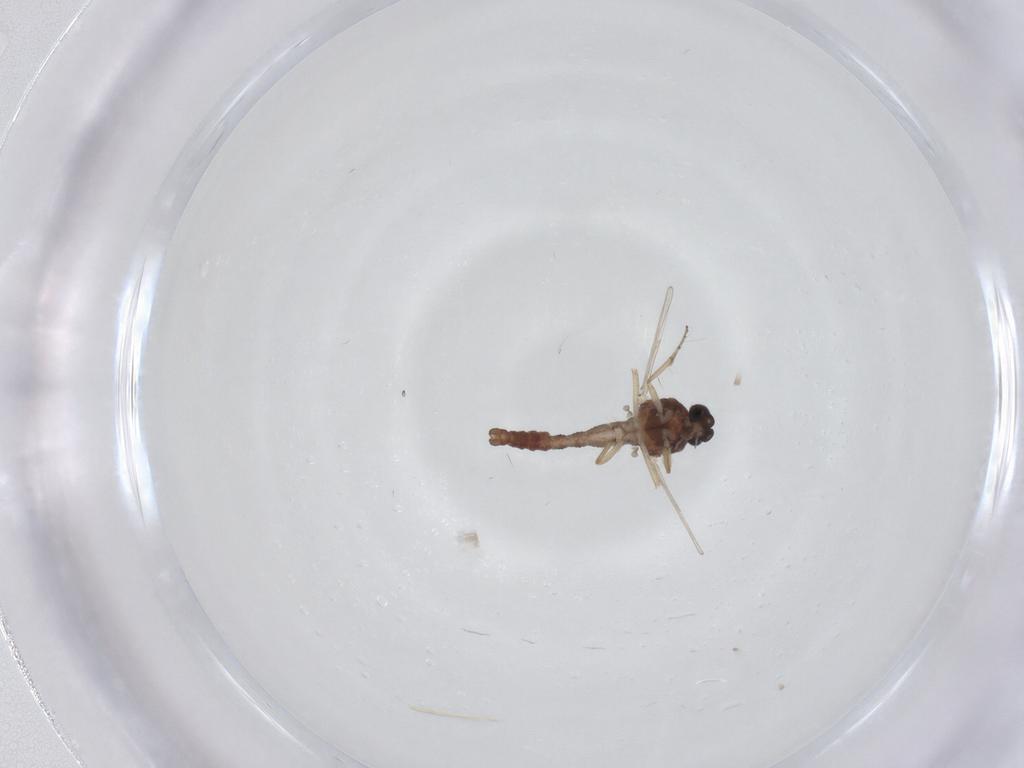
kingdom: Animalia
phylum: Arthropoda
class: Insecta
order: Diptera
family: Ceratopogonidae
